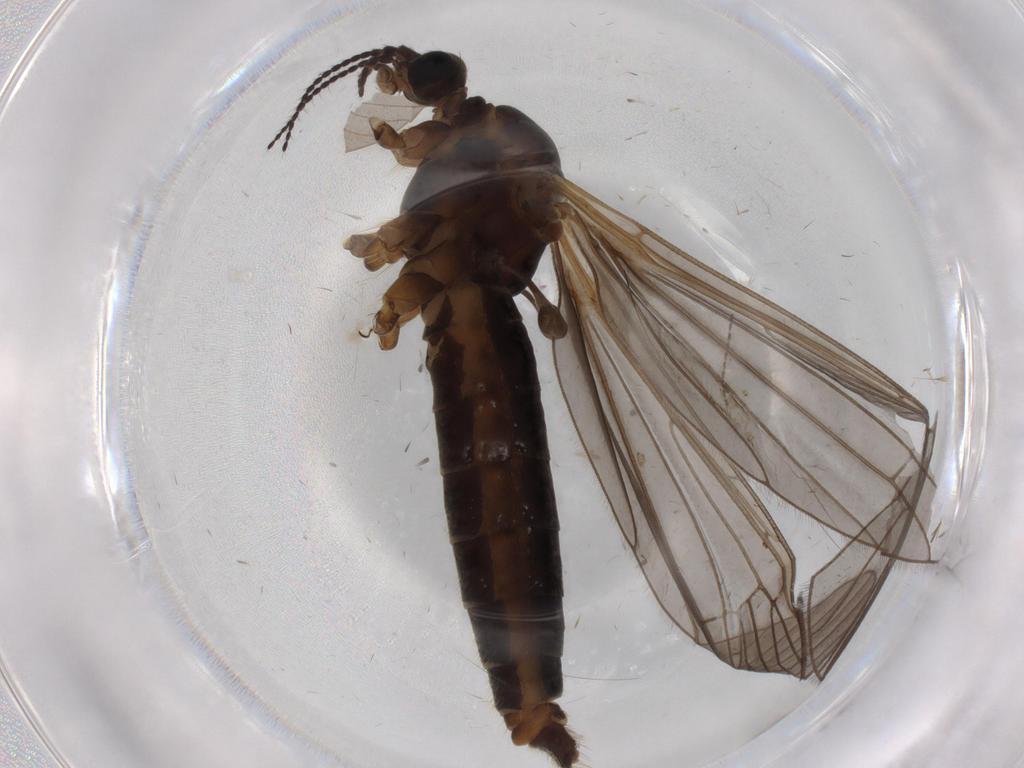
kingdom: Animalia
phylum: Arthropoda
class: Insecta
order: Diptera
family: Limoniidae
